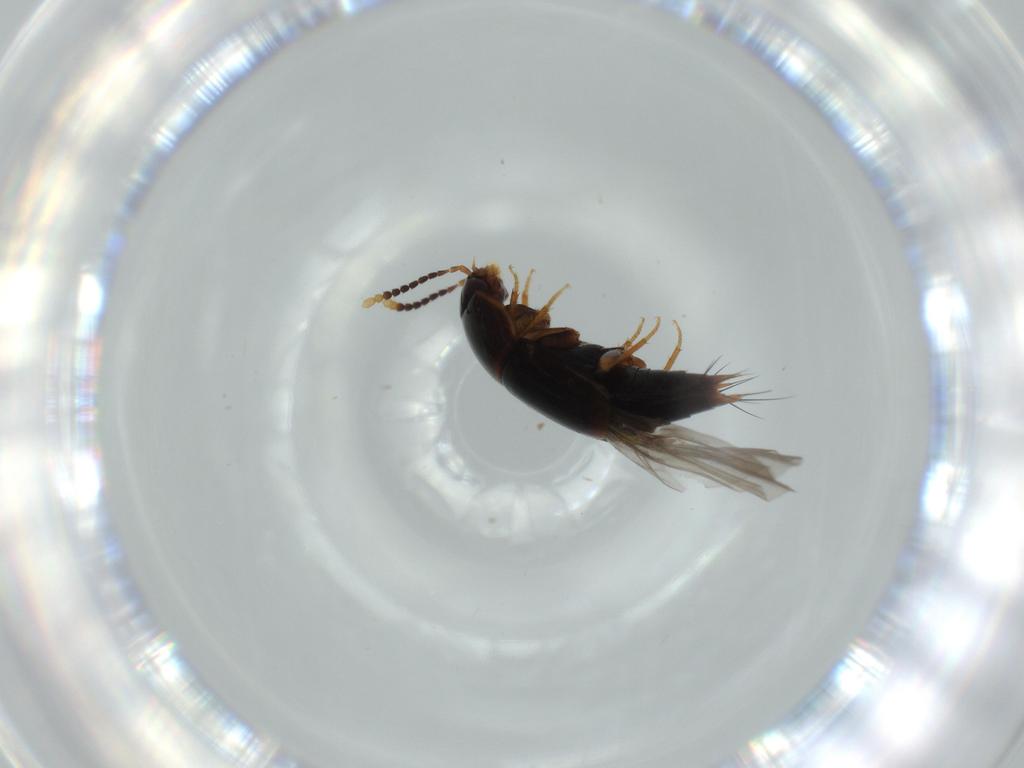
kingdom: Animalia
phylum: Arthropoda
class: Insecta
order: Coleoptera
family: Staphylinidae
